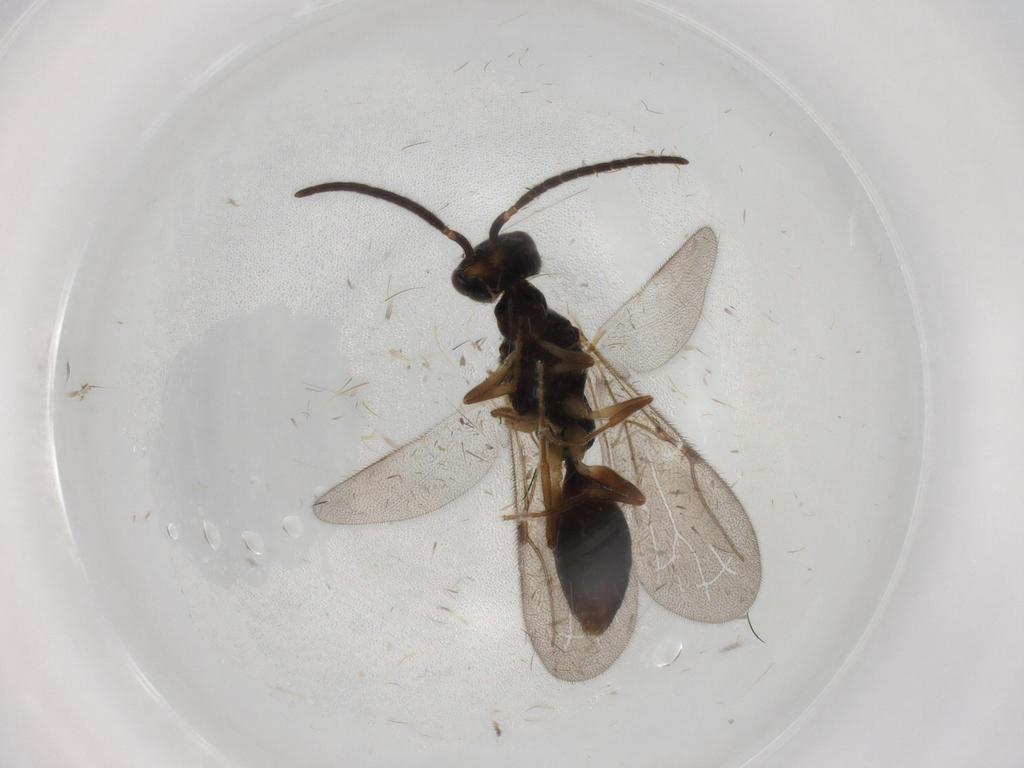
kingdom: Animalia
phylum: Arthropoda
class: Insecta
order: Hymenoptera
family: Bethylidae
